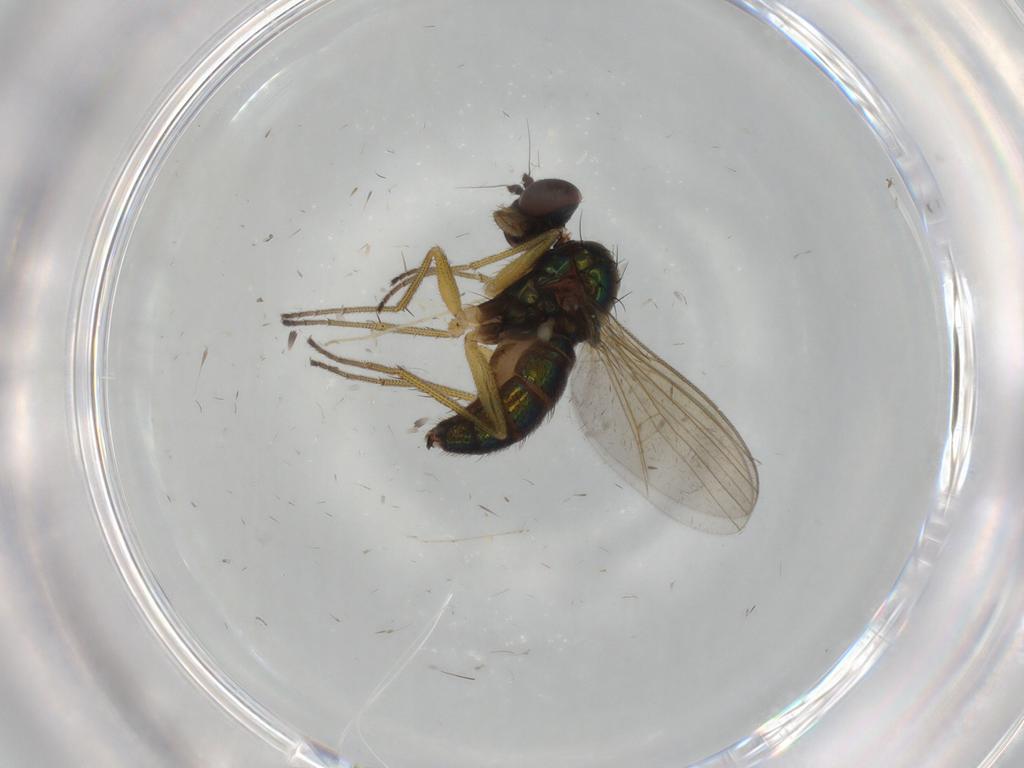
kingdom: Animalia
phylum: Arthropoda
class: Insecta
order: Diptera
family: Dolichopodidae
